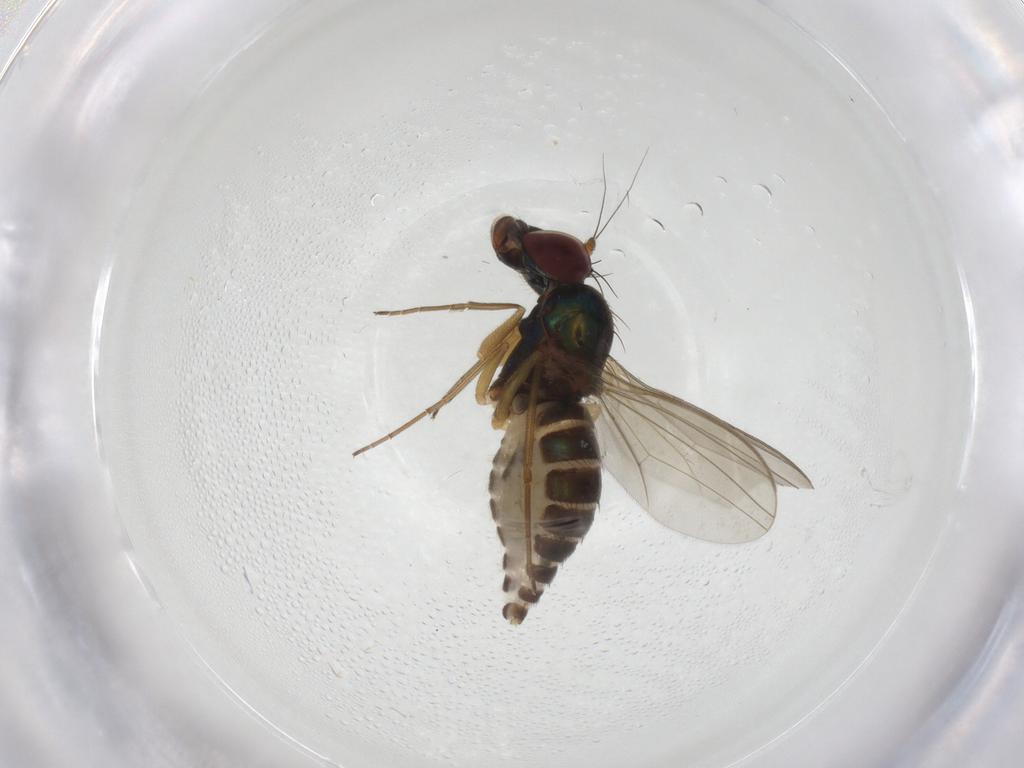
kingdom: Animalia
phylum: Arthropoda
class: Insecta
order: Diptera
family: Dolichopodidae
